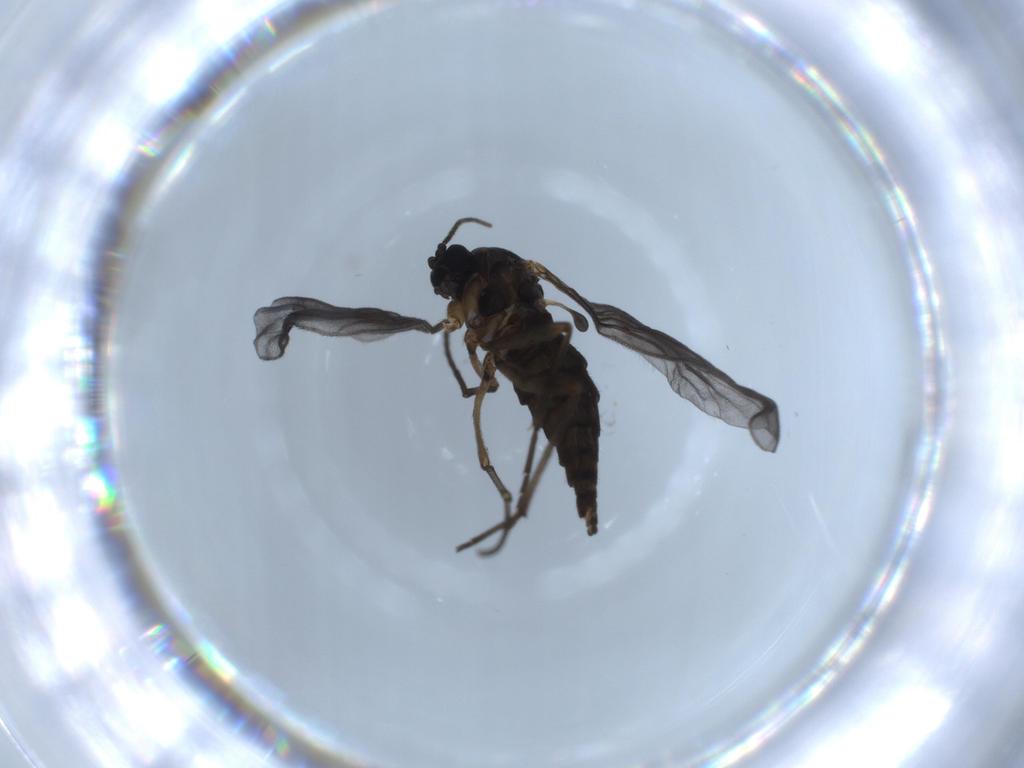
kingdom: Animalia
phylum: Arthropoda
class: Insecta
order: Diptera
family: Sciaridae
